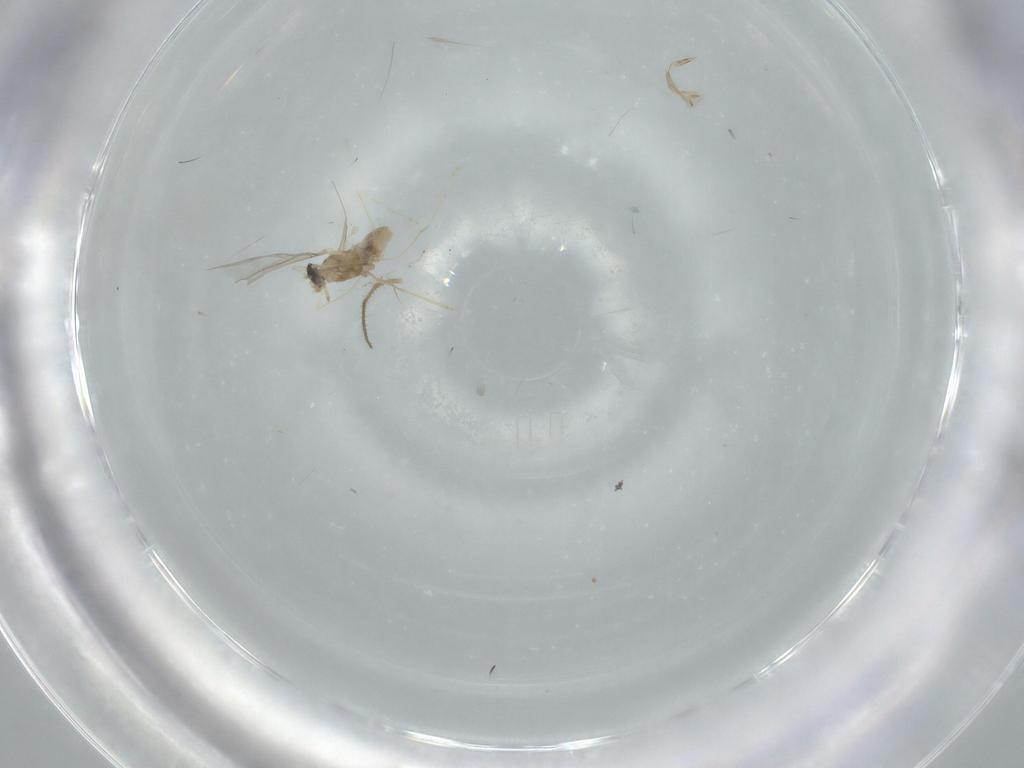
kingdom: Animalia
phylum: Arthropoda
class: Insecta
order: Diptera
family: Cecidomyiidae
